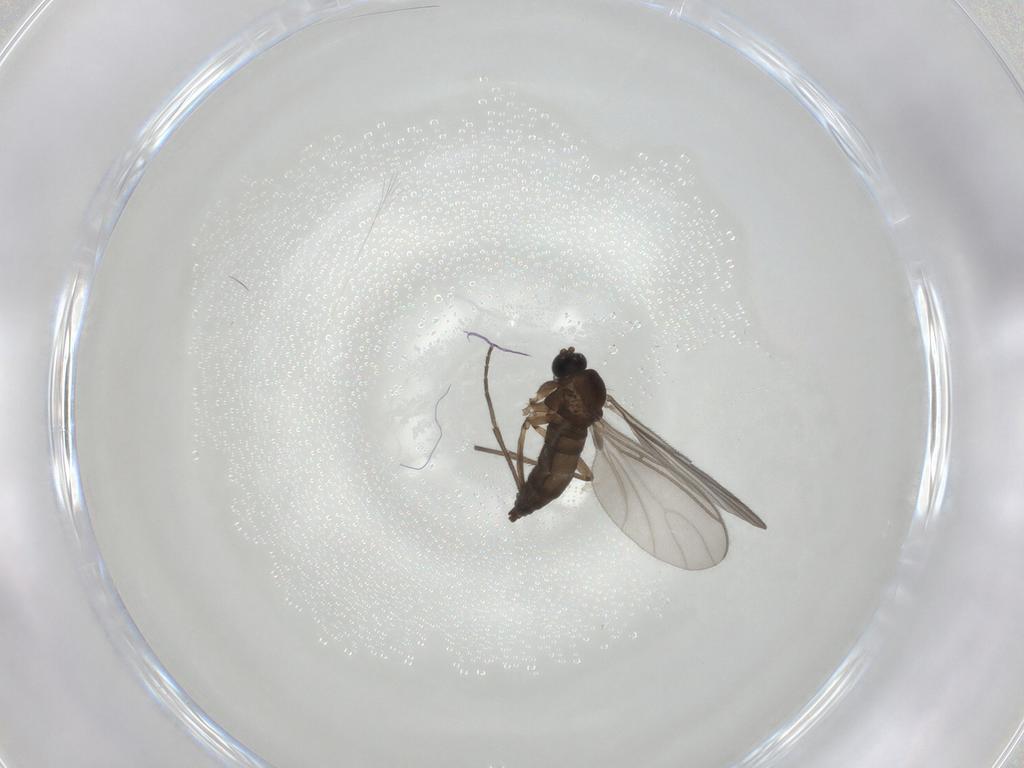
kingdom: Animalia
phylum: Arthropoda
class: Insecta
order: Diptera
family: Sciaridae
